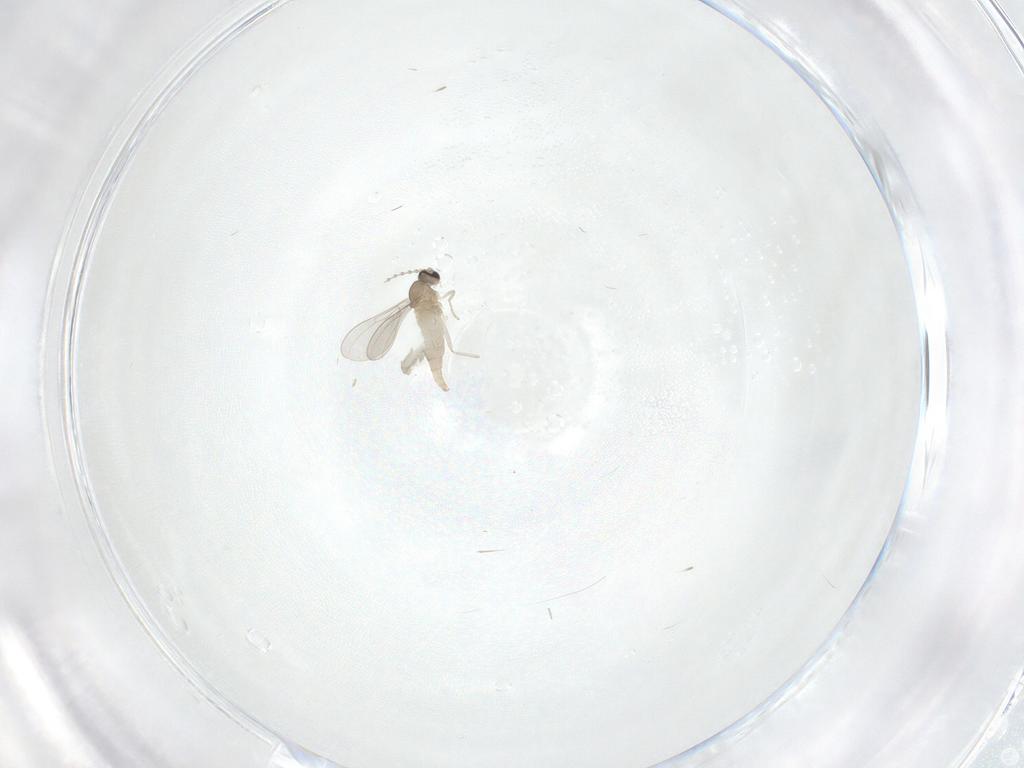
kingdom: Animalia
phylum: Arthropoda
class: Insecta
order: Diptera
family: Cecidomyiidae
